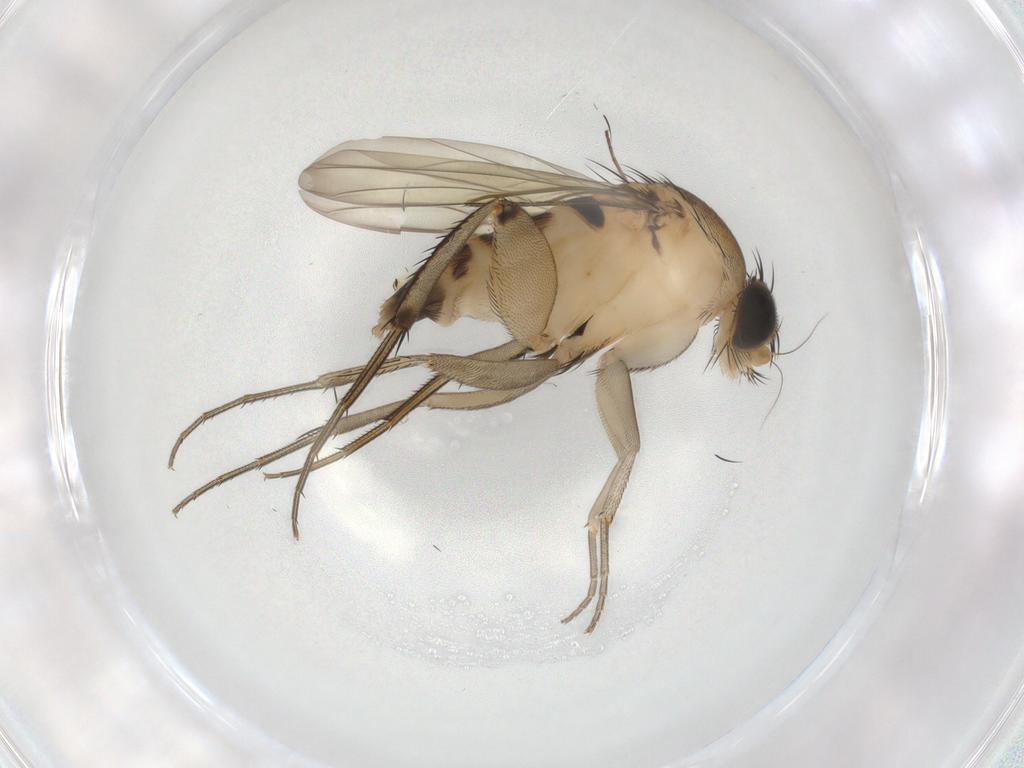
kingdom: Animalia
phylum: Arthropoda
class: Insecta
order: Diptera
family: Phoridae
